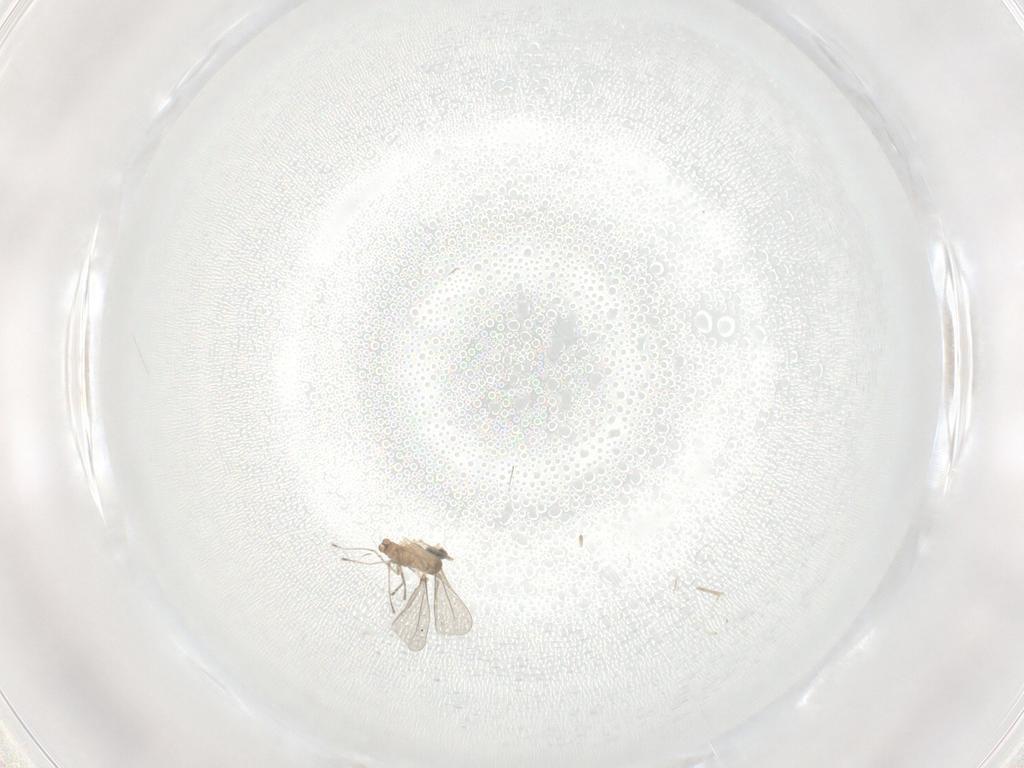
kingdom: Animalia
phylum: Arthropoda
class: Insecta
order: Diptera
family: Cecidomyiidae
